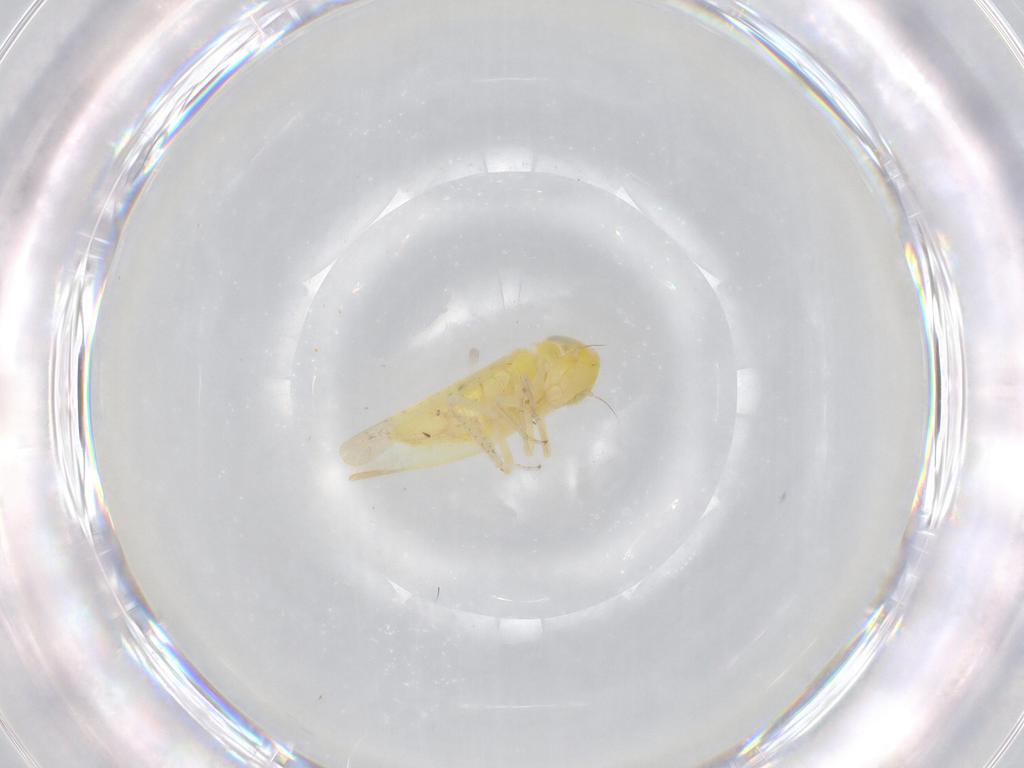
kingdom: Animalia
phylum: Arthropoda
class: Insecta
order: Hemiptera
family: Cicadellidae
